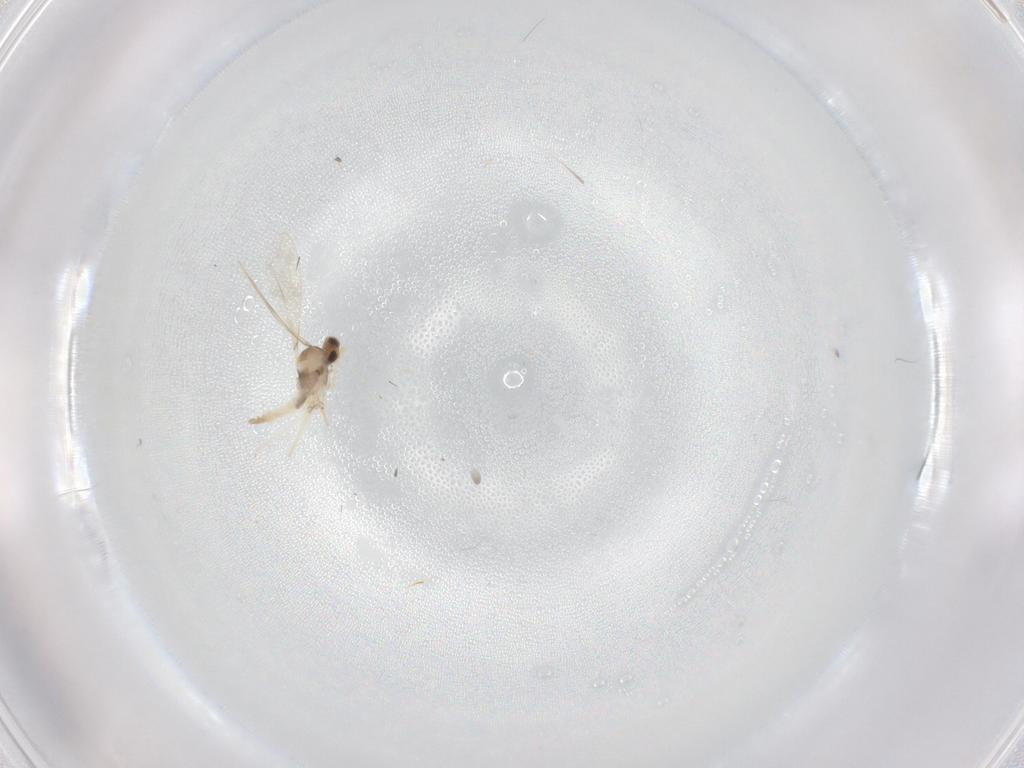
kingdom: Animalia
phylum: Arthropoda
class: Insecta
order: Diptera
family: Cecidomyiidae
